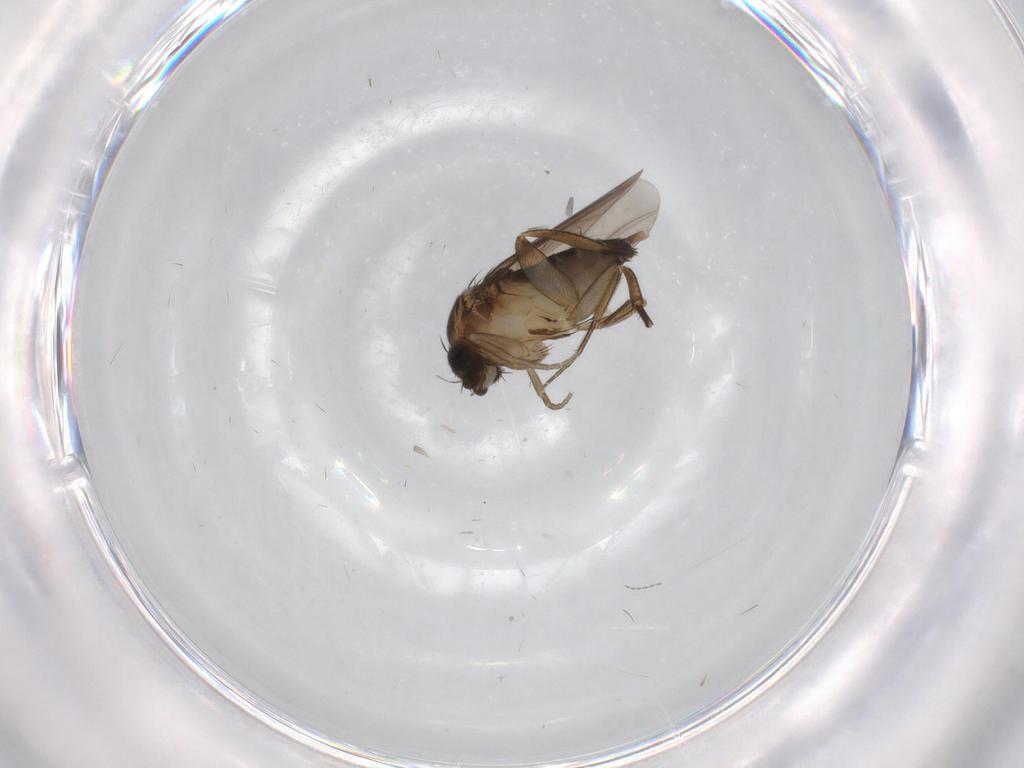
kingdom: Animalia
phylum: Arthropoda
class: Insecta
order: Diptera
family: Phoridae
